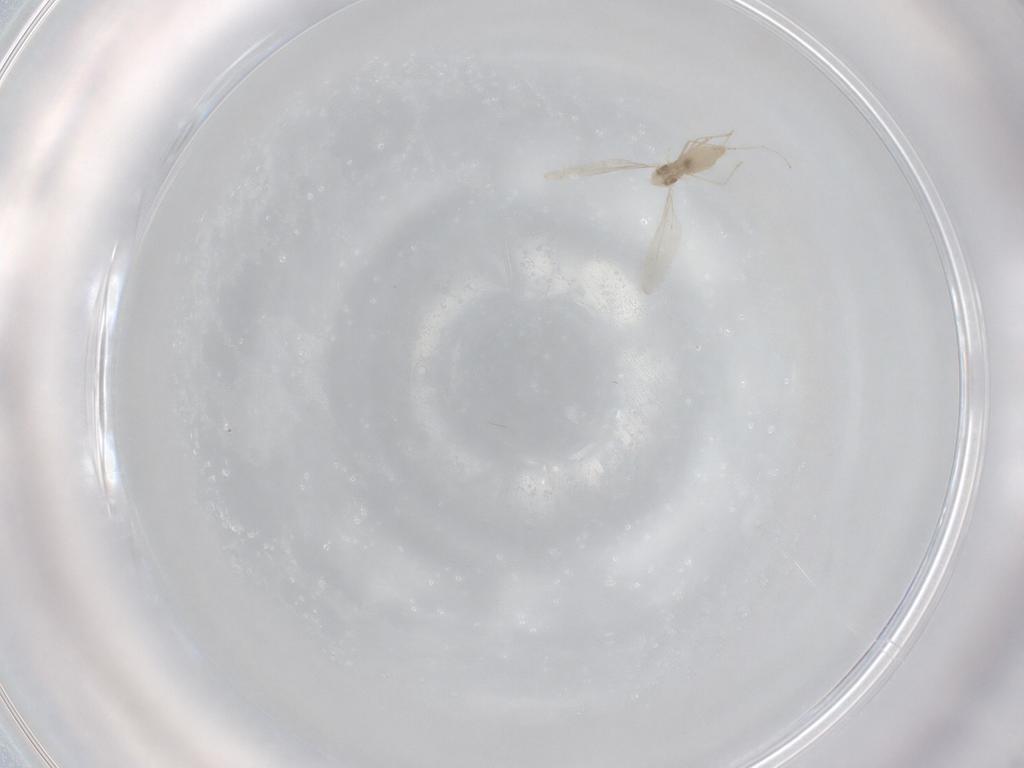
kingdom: Animalia
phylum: Arthropoda
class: Insecta
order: Diptera
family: Cecidomyiidae
